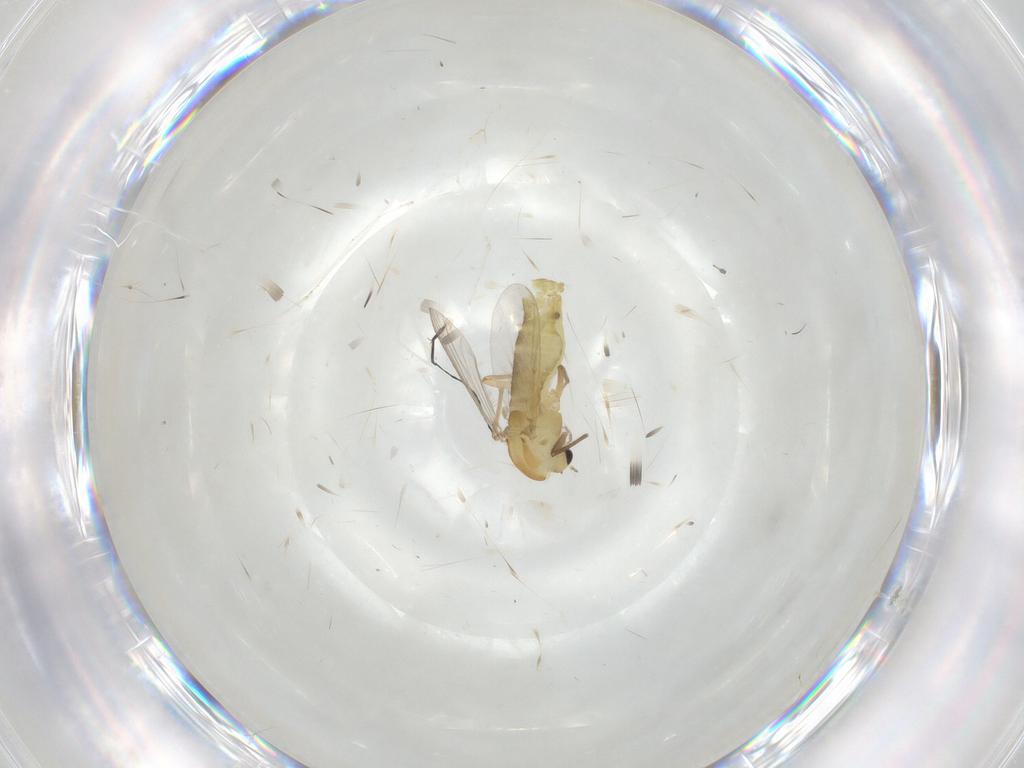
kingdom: Animalia
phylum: Arthropoda
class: Insecta
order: Diptera
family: Chironomidae
